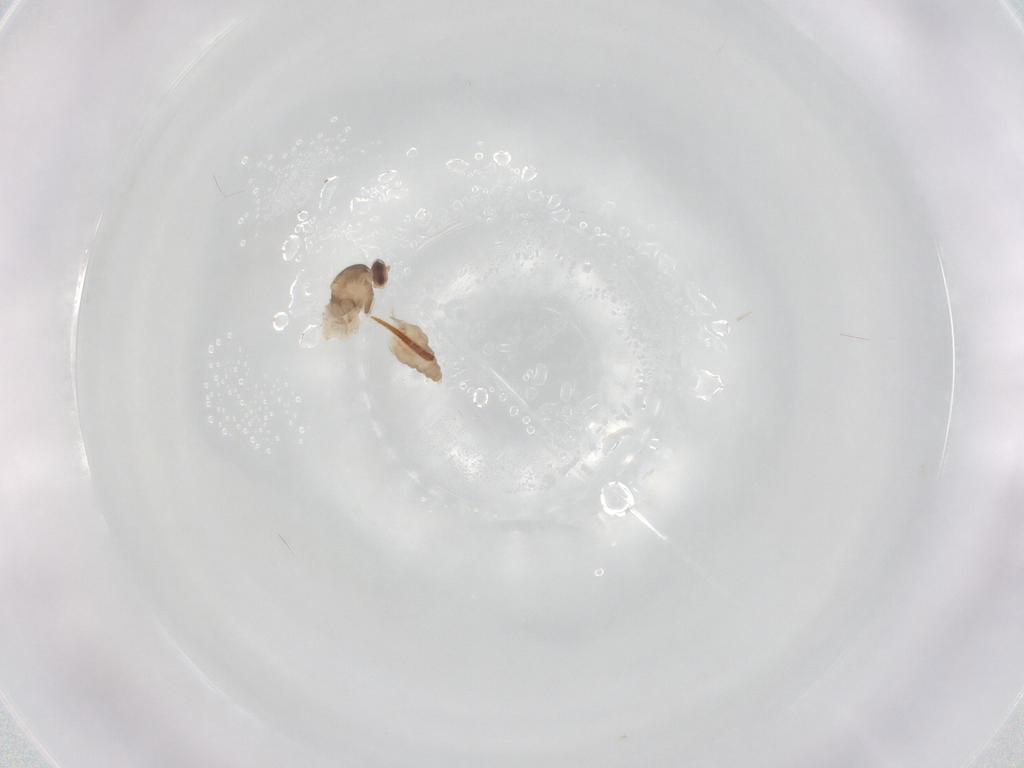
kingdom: Animalia
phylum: Arthropoda
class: Insecta
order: Diptera
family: Cecidomyiidae
